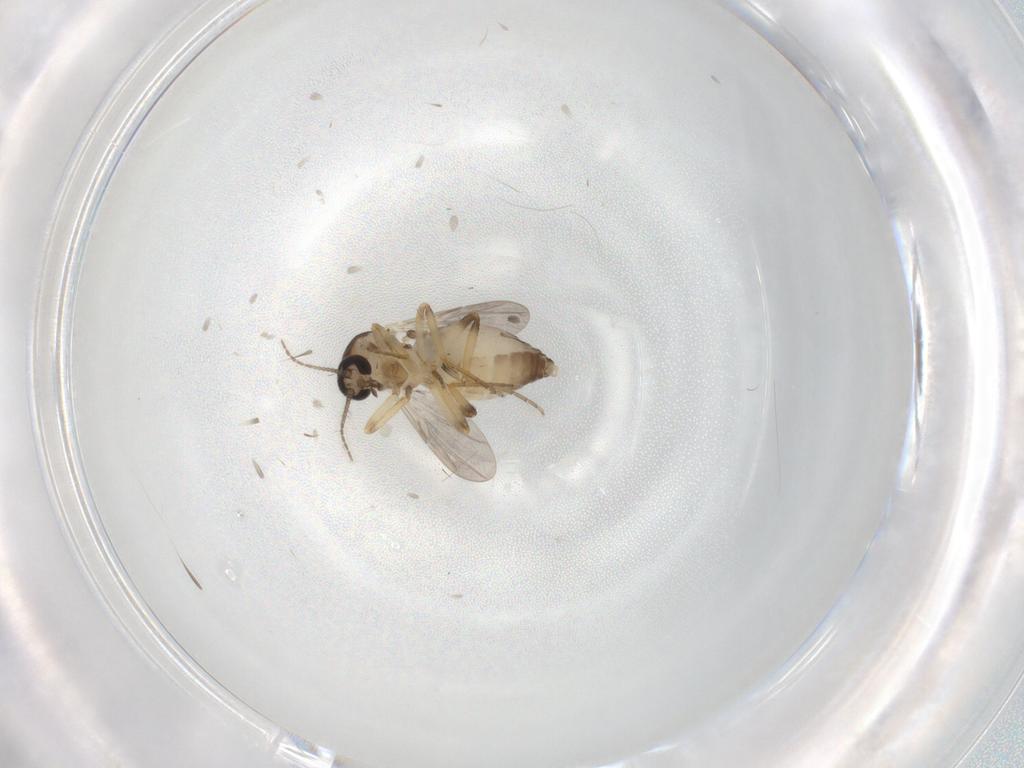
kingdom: Animalia
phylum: Arthropoda
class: Insecta
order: Diptera
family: Ceratopogonidae
